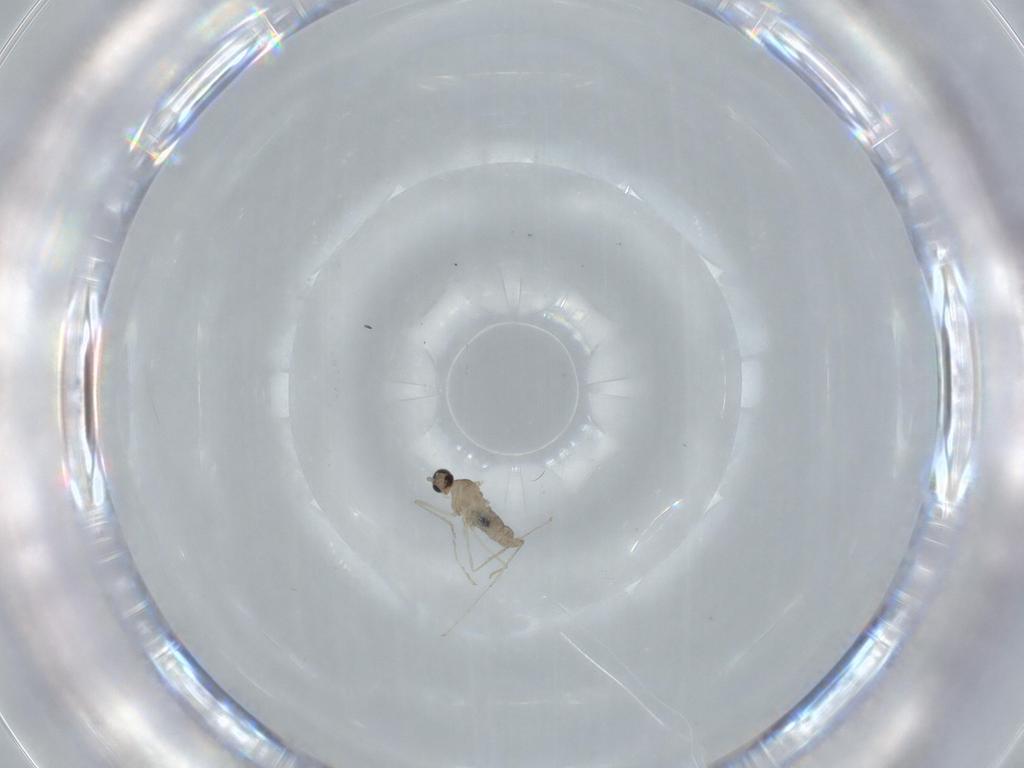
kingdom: Animalia
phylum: Arthropoda
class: Insecta
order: Diptera
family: Cecidomyiidae
